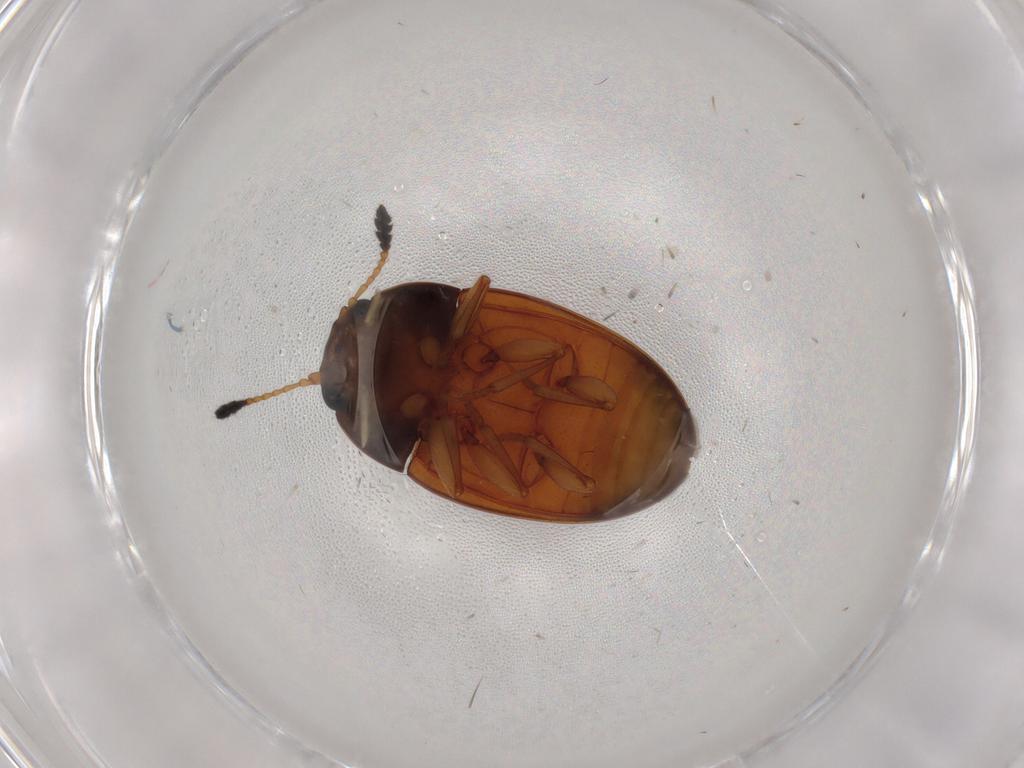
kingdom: Animalia
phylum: Arthropoda
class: Insecta
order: Coleoptera
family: Erotylidae
